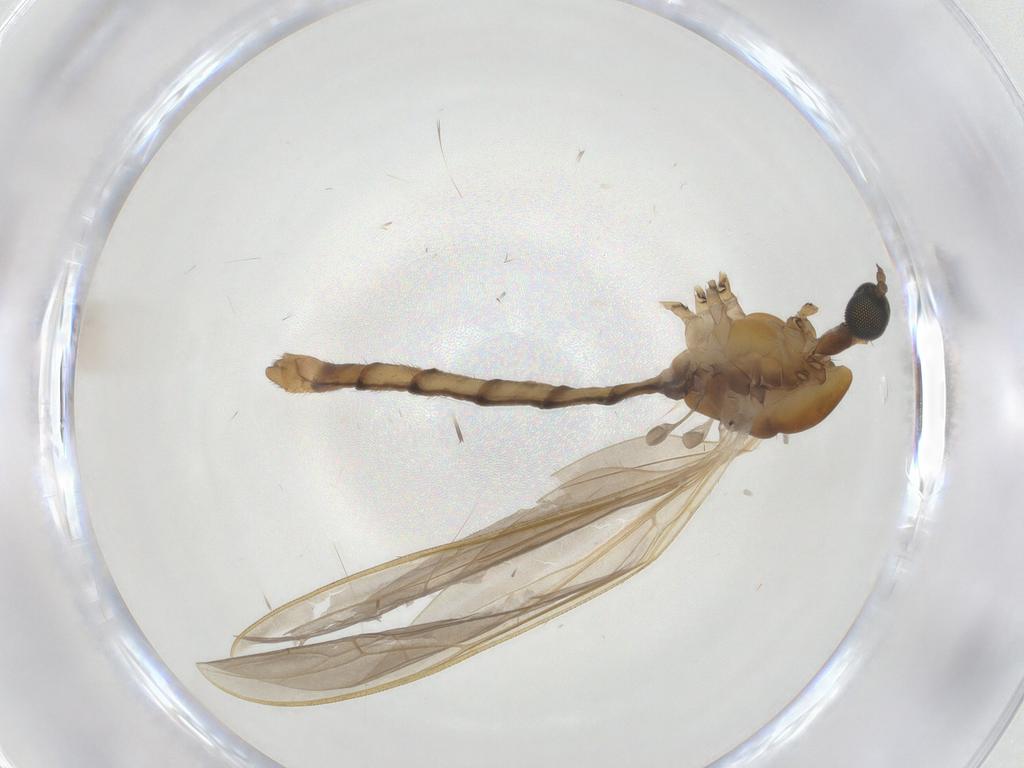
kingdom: Animalia
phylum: Arthropoda
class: Insecta
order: Diptera
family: Limoniidae
